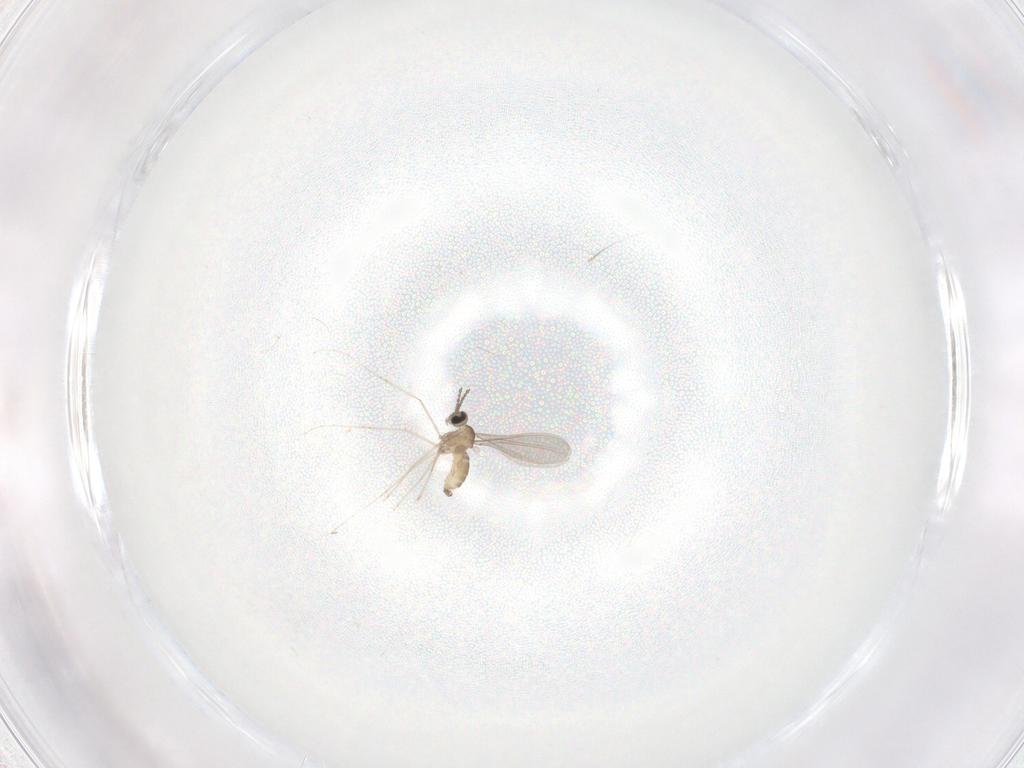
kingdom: Animalia
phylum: Arthropoda
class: Insecta
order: Diptera
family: Cecidomyiidae
